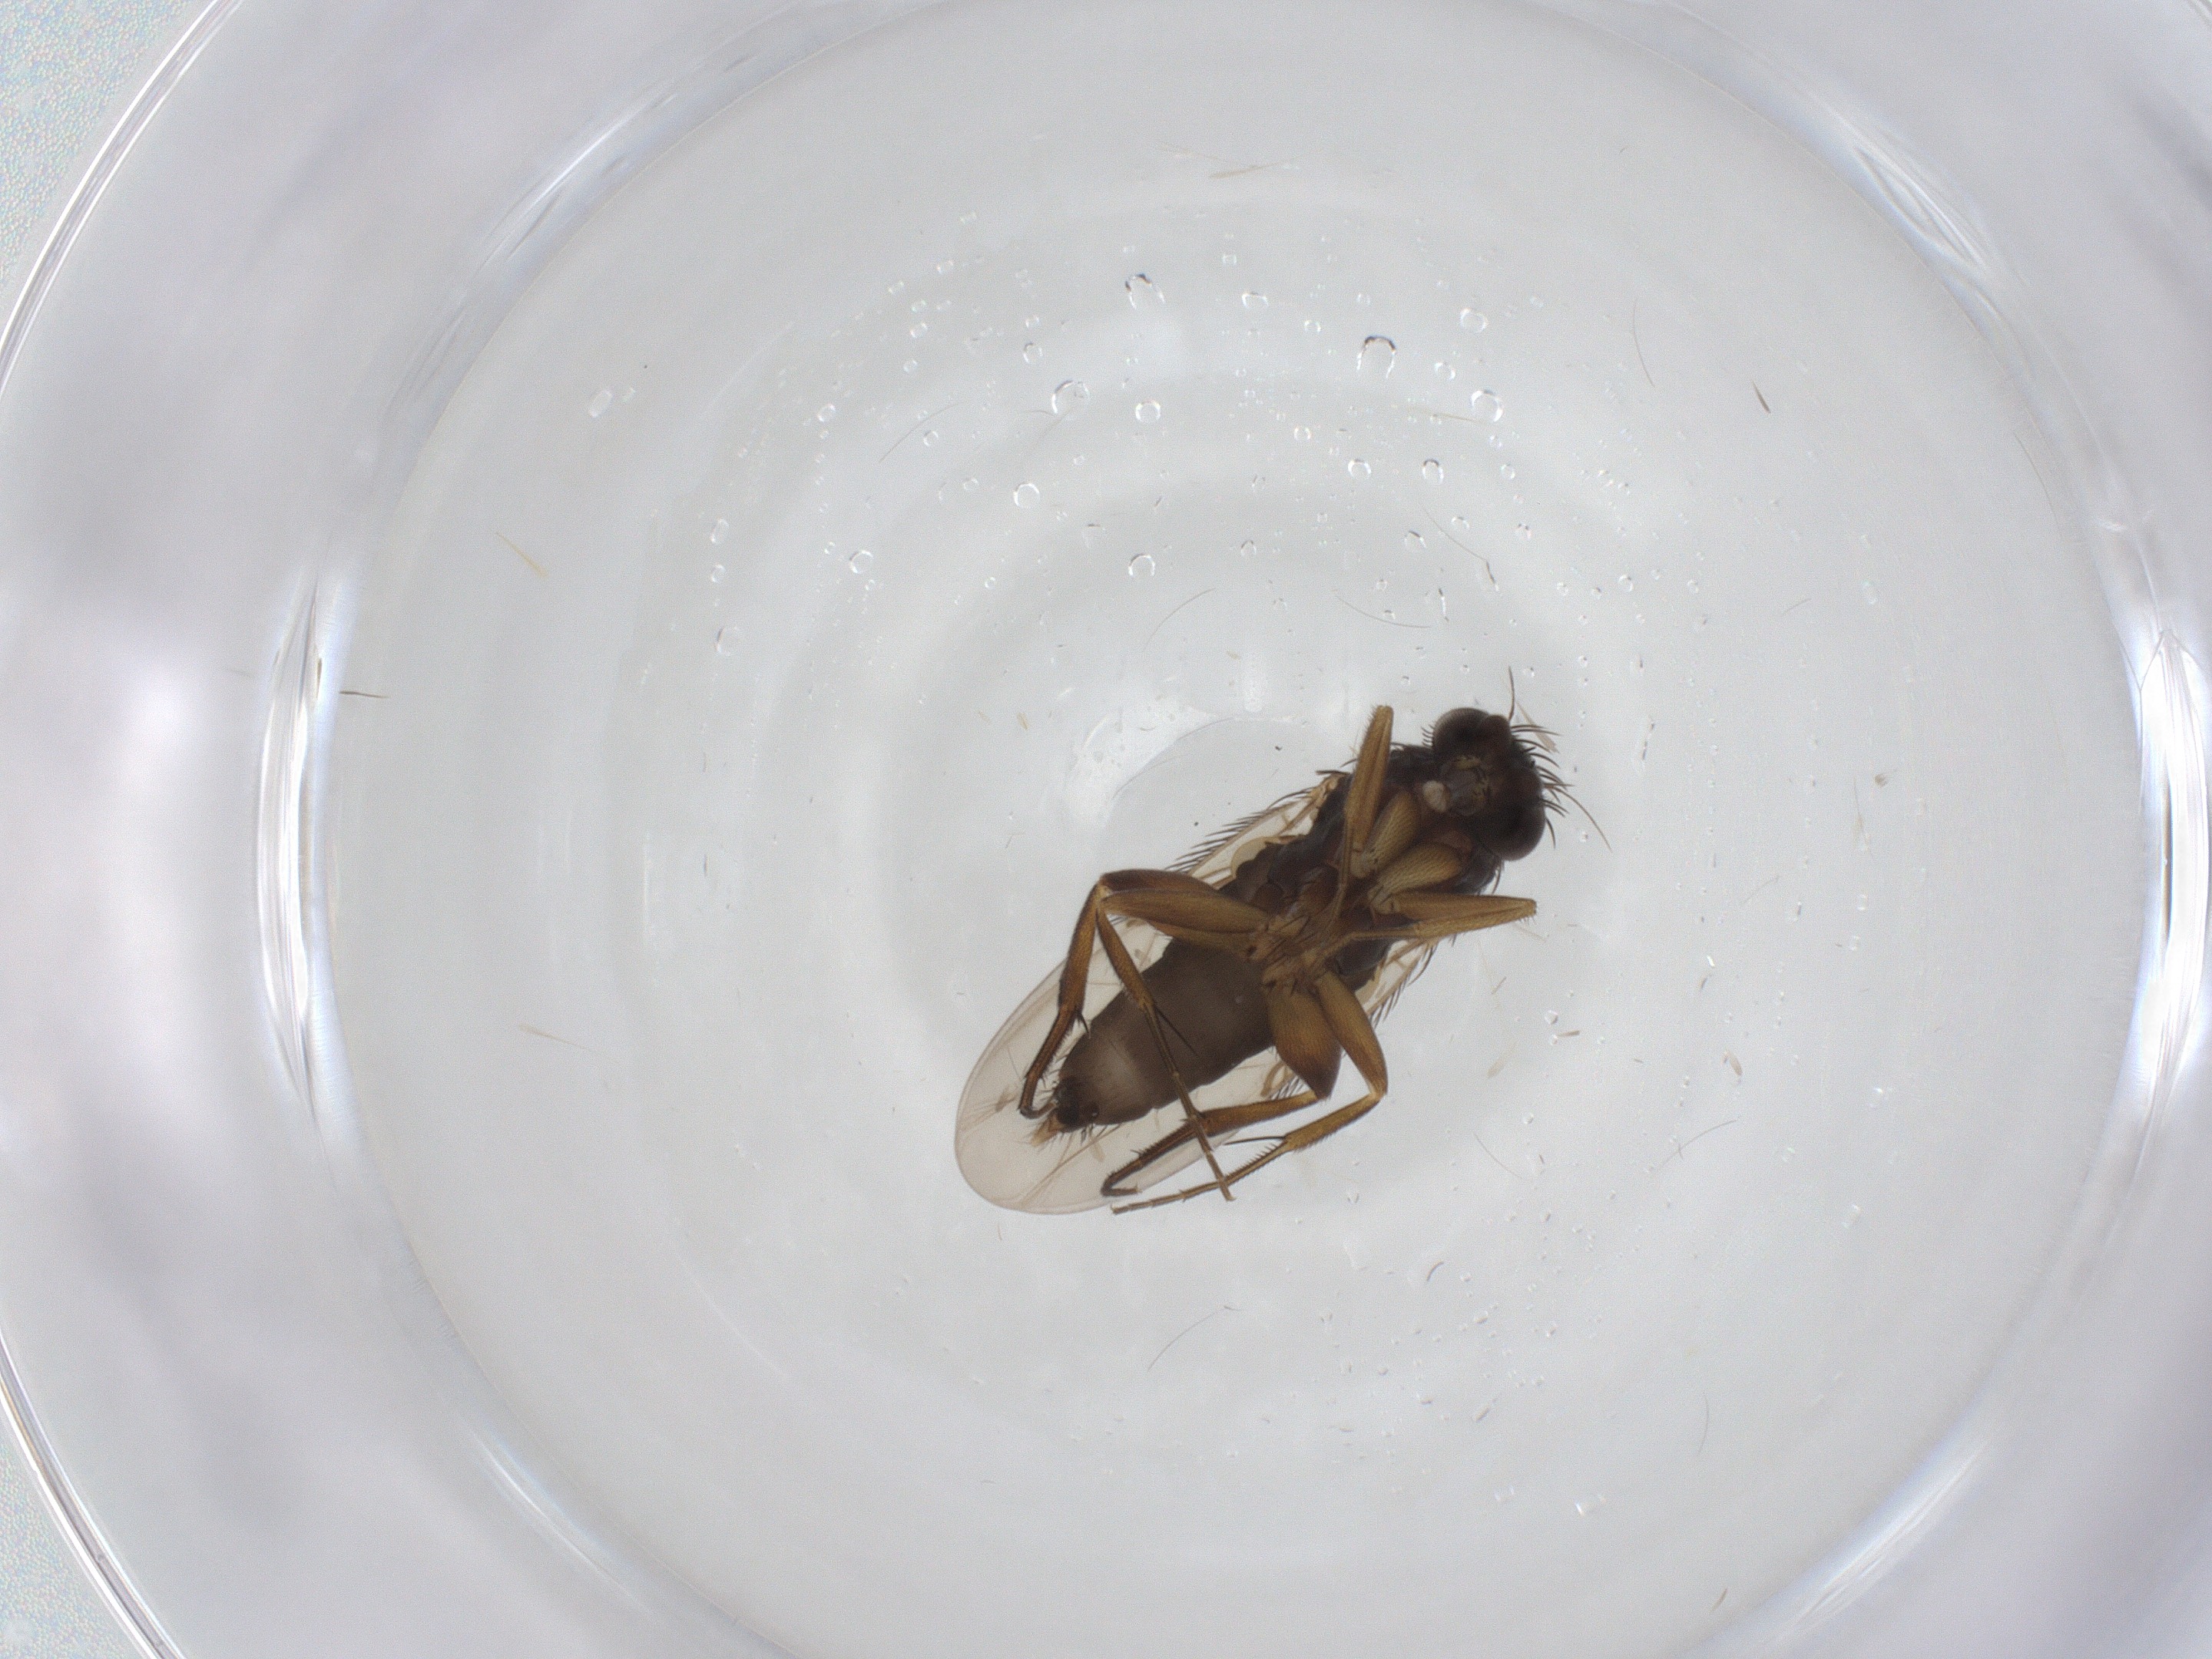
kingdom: Animalia
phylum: Arthropoda
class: Insecta
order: Diptera
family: Phoridae
